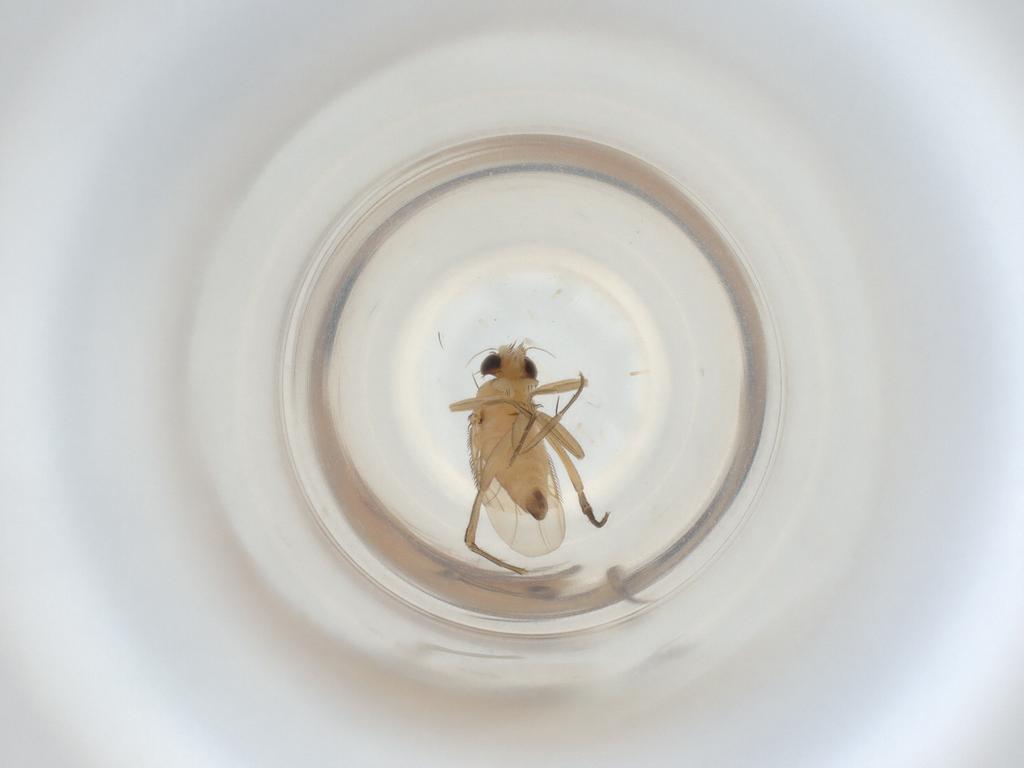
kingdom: Animalia
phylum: Arthropoda
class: Insecta
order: Diptera
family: Phoridae
